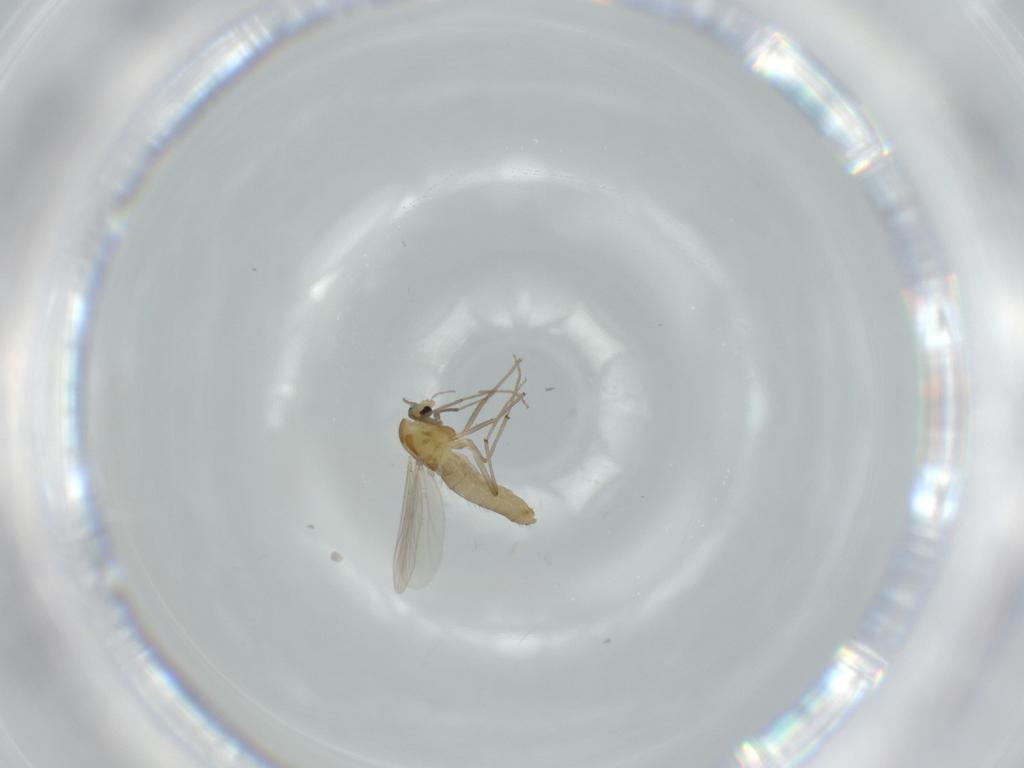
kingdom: Animalia
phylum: Arthropoda
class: Insecta
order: Diptera
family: Chironomidae
